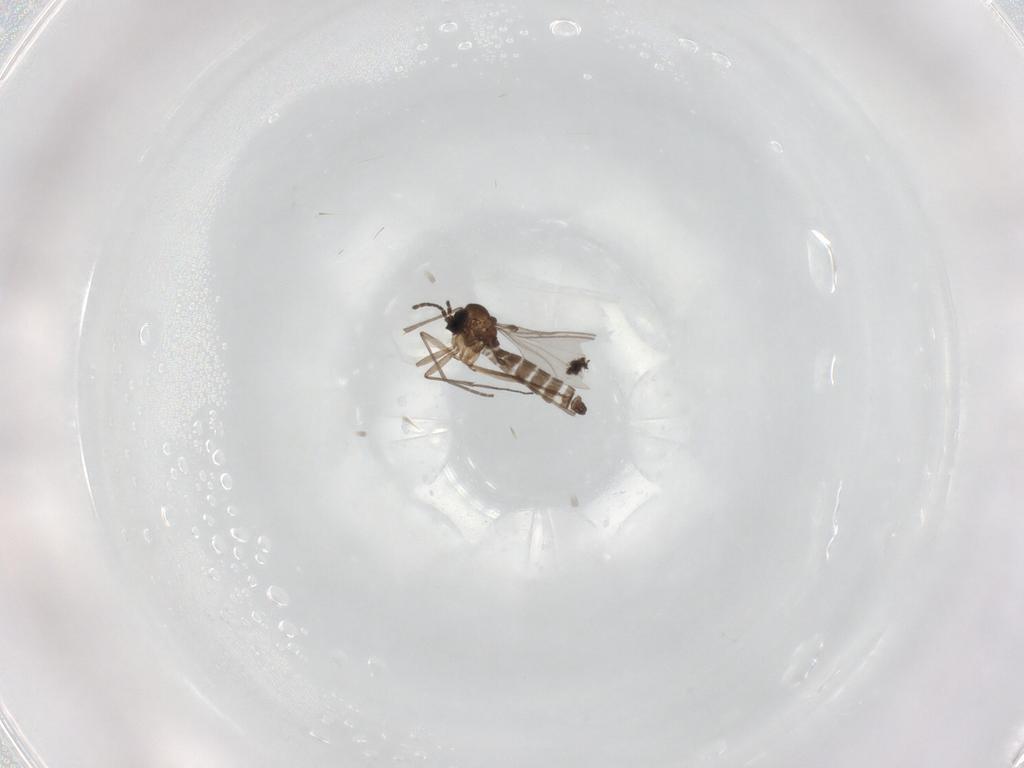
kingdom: Animalia
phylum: Arthropoda
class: Insecta
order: Diptera
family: Sciaridae
